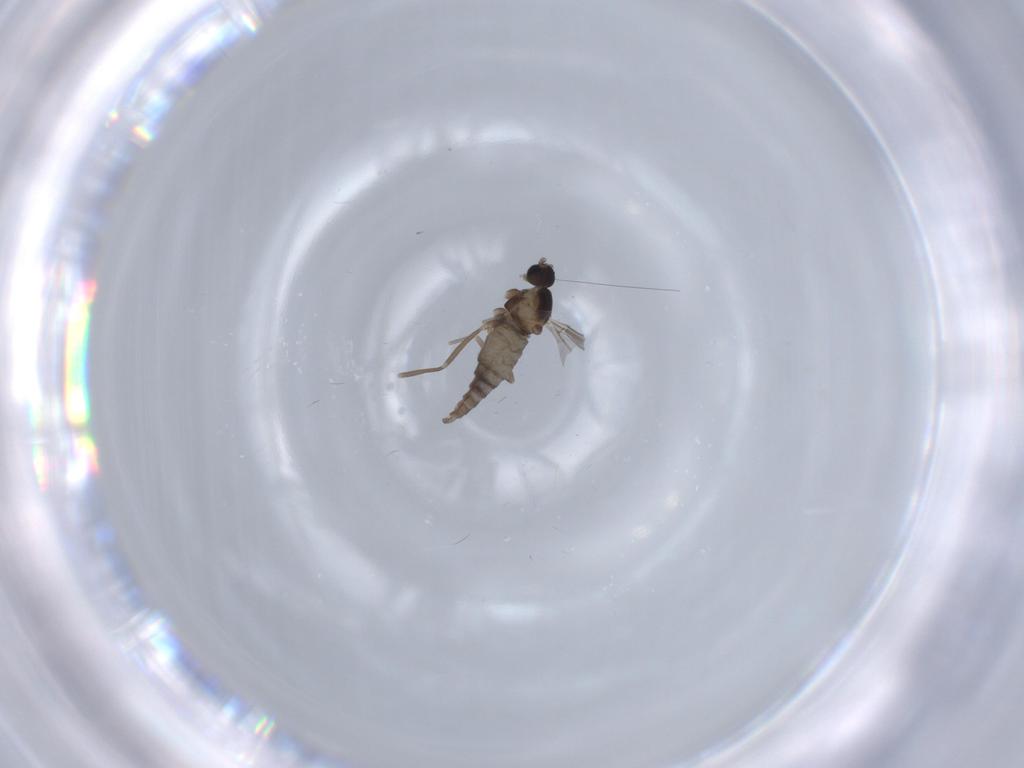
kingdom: Animalia
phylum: Arthropoda
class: Insecta
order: Diptera
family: Cecidomyiidae
